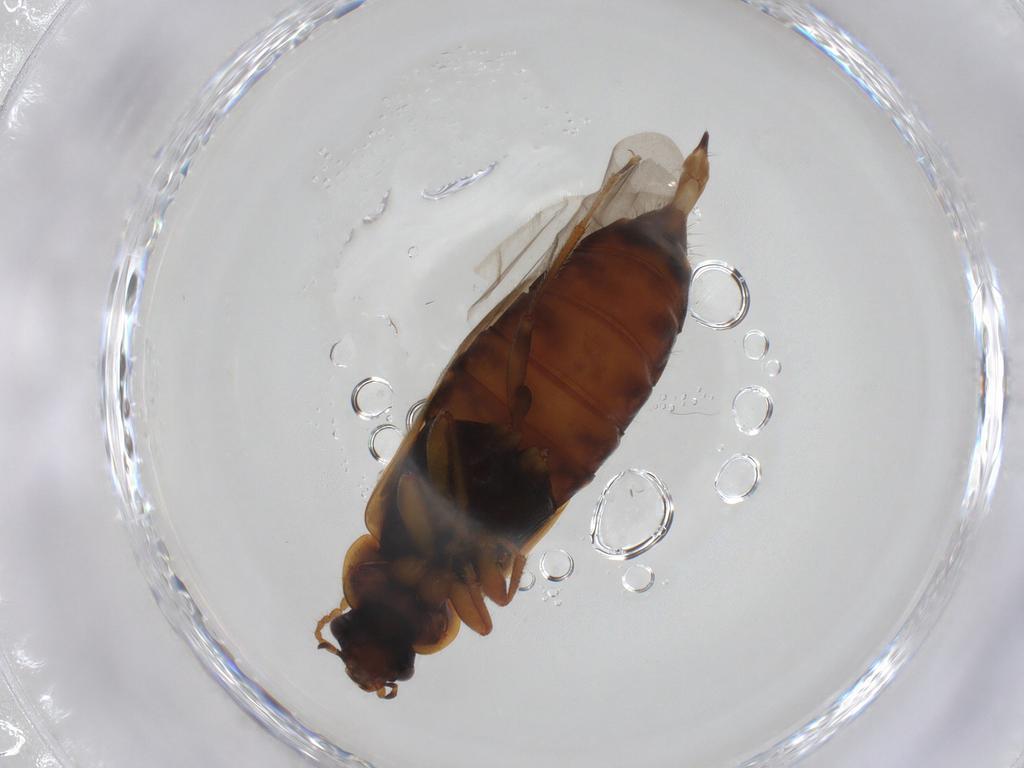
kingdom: Animalia
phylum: Arthropoda
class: Insecta
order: Coleoptera
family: Staphylinidae
